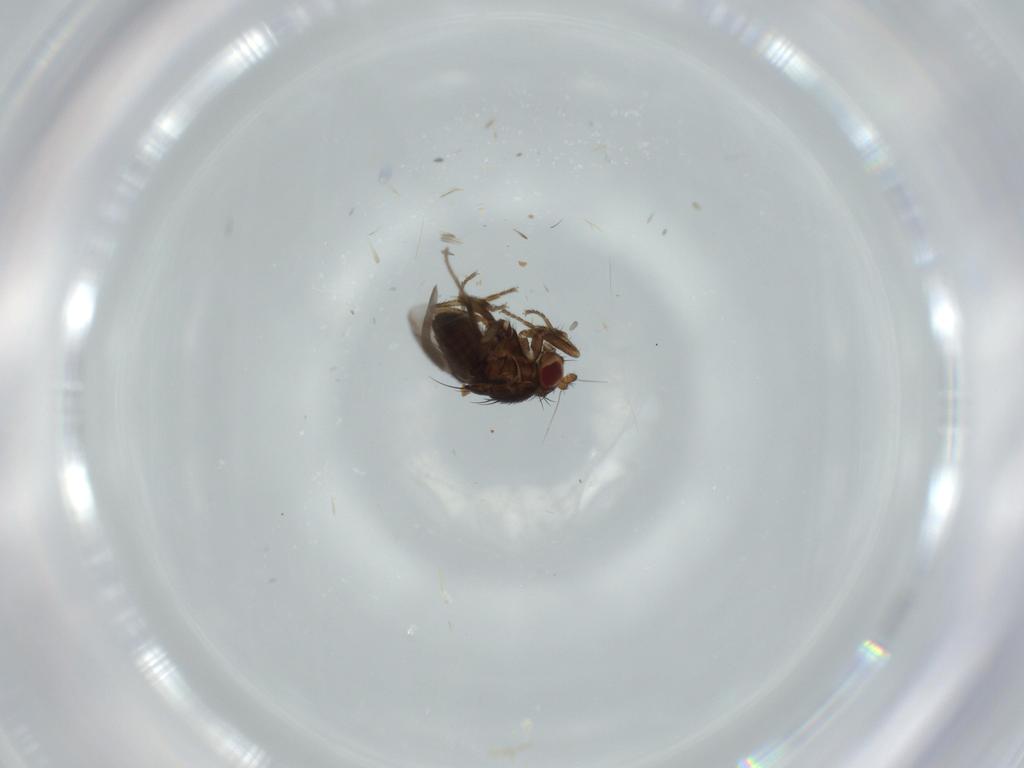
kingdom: Animalia
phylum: Arthropoda
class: Insecta
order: Diptera
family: Sphaeroceridae
